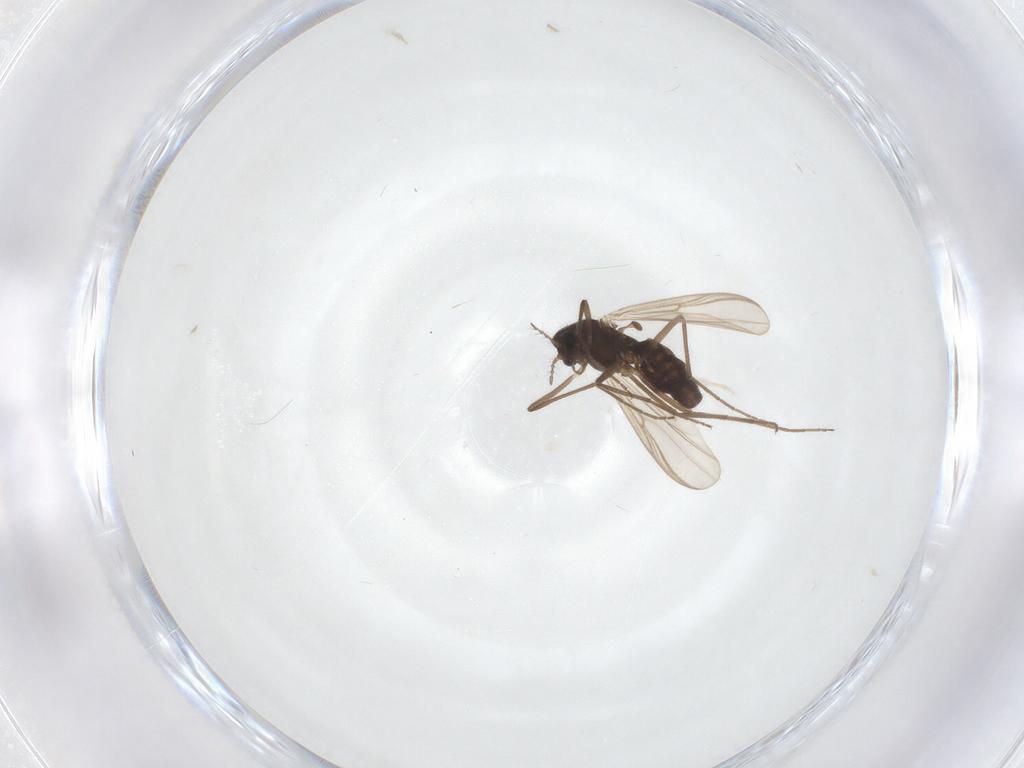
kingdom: Animalia
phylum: Arthropoda
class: Insecta
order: Diptera
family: Chironomidae
